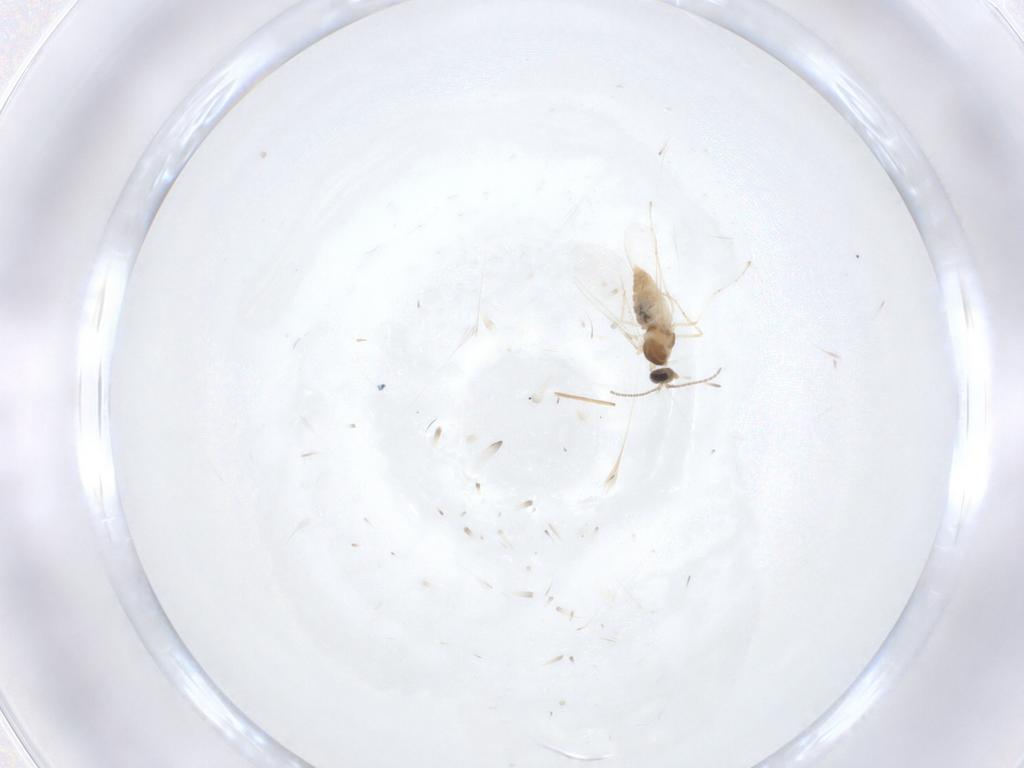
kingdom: Animalia
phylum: Arthropoda
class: Insecta
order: Diptera
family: Cecidomyiidae
